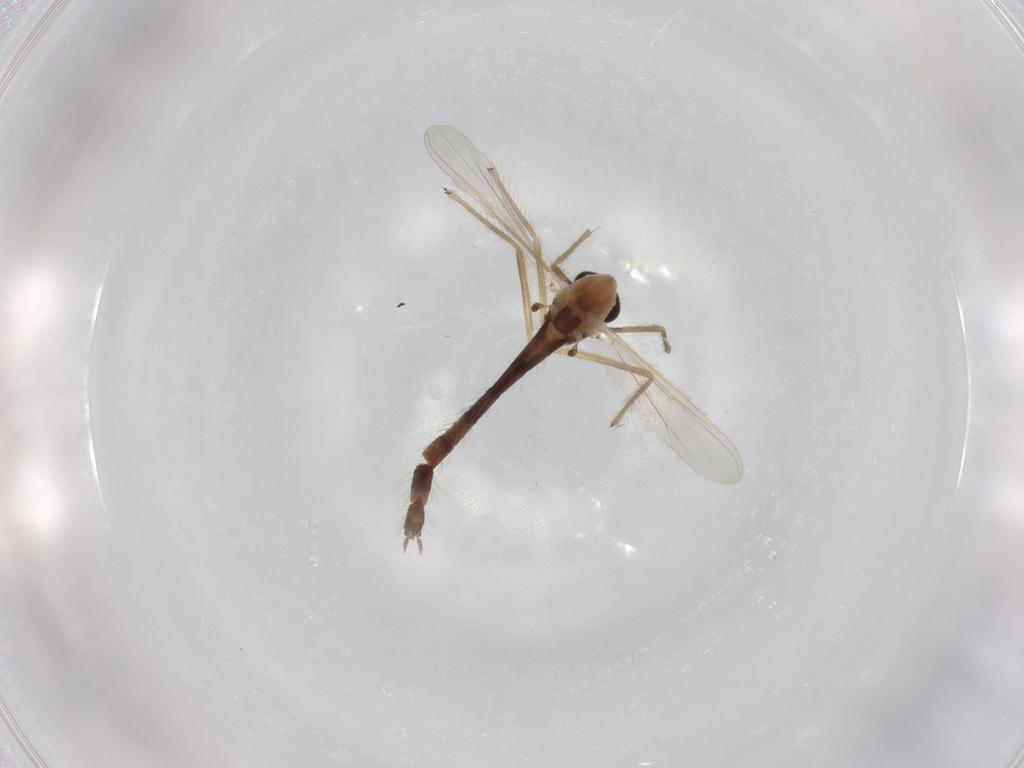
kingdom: Animalia
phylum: Arthropoda
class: Insecta
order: Diptera
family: Chironomidae
